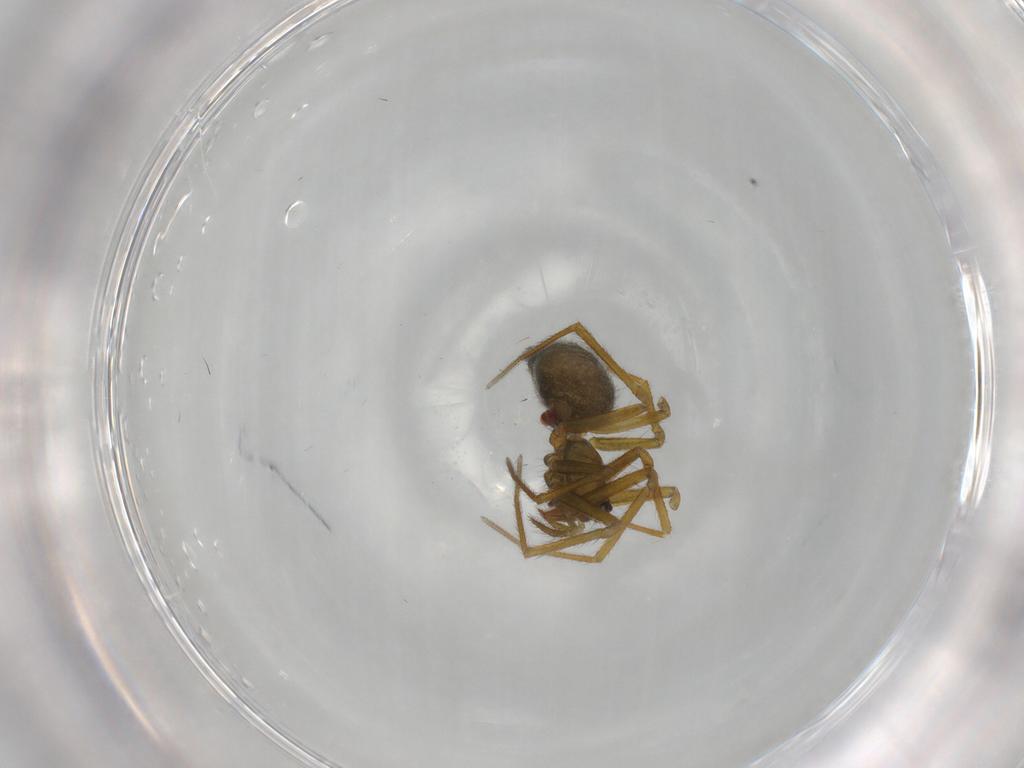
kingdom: Animalia
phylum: Arthropoda
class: Arachnida
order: Araneae
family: Linyphiidae
